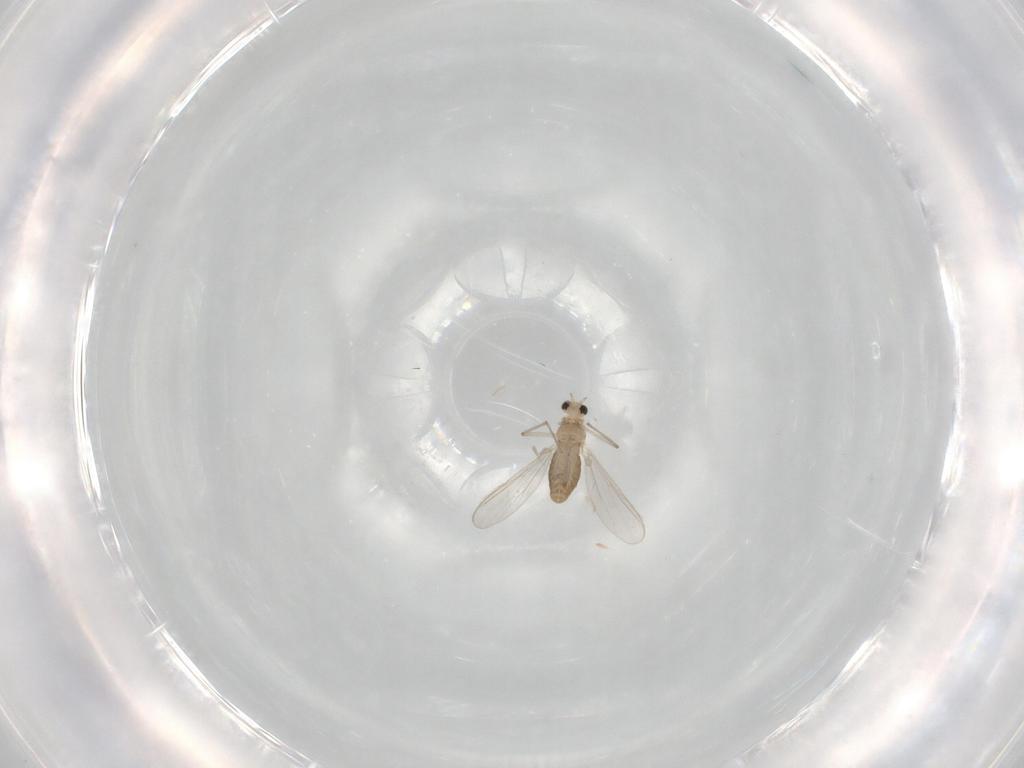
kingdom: Animalia
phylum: Arthropoda
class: Insecta
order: Diptera
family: Chironomidae
